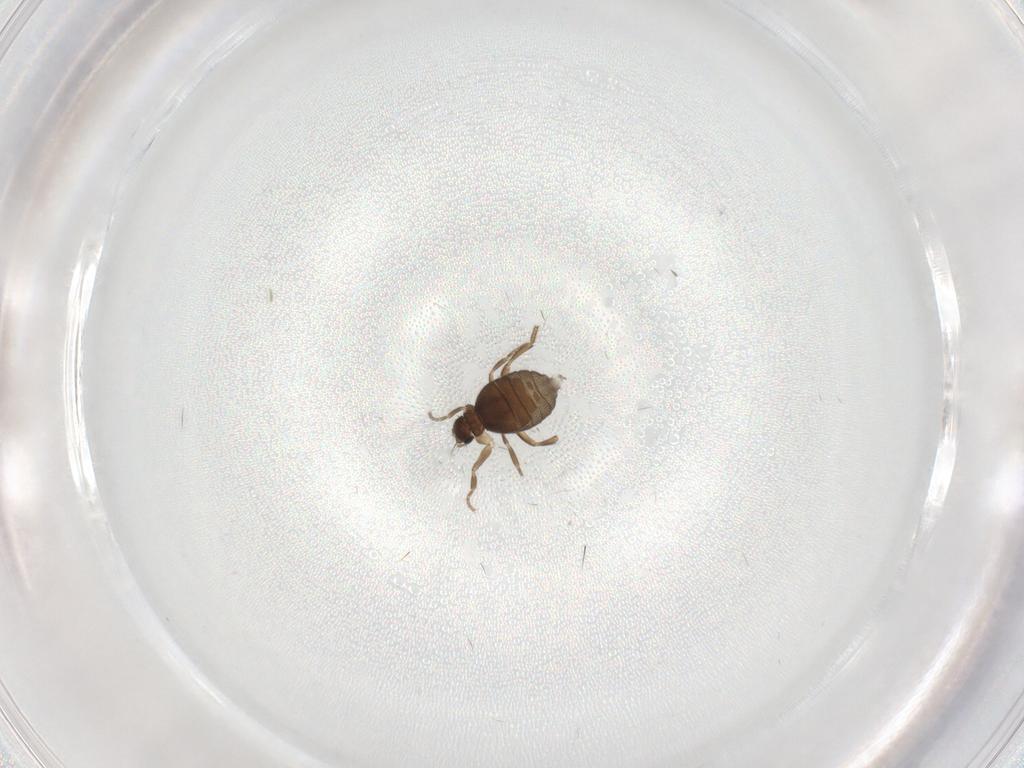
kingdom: Animalia
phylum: Arthropoda
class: Insecta
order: Diptera
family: Phoridae
